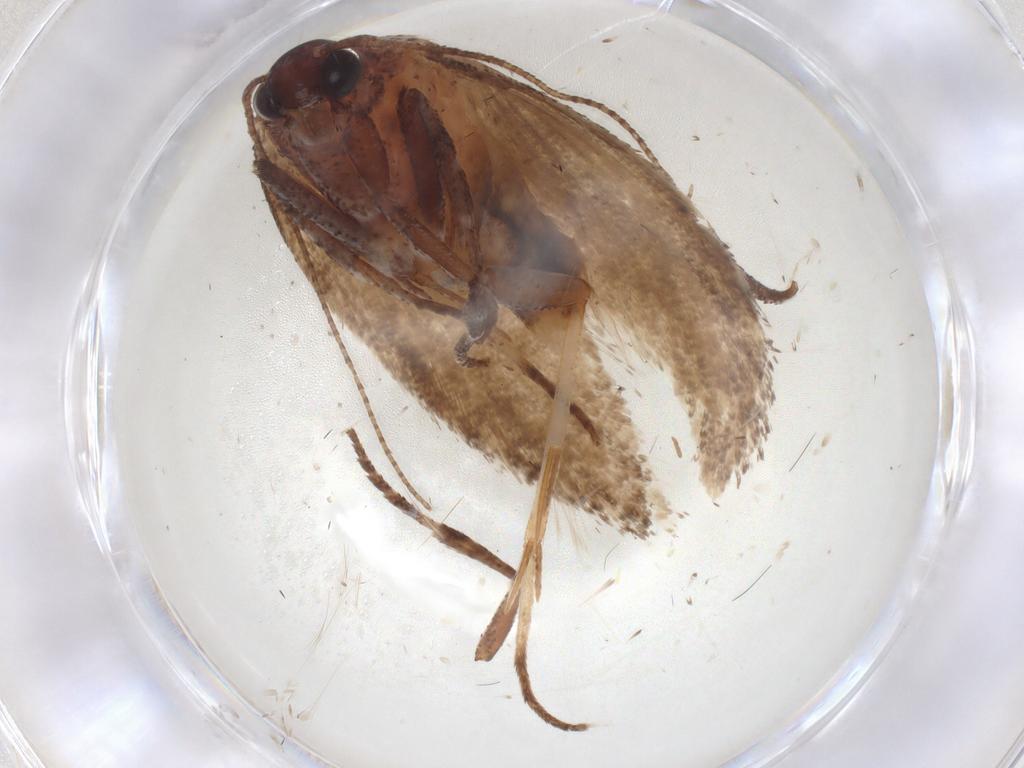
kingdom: Animalia
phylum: Arthropoda
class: Insecta
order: Lepidoptera
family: Cosmopterigidae
